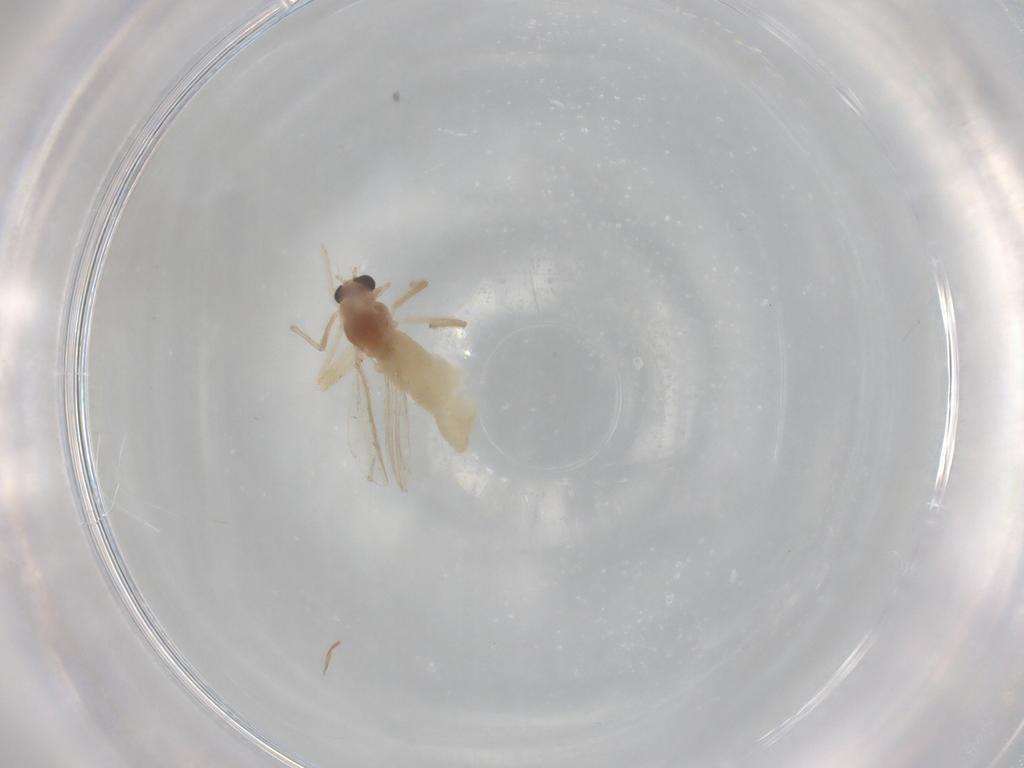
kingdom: Animalia
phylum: Arthropoda
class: Insecta
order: Diptera
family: Chironomidae
